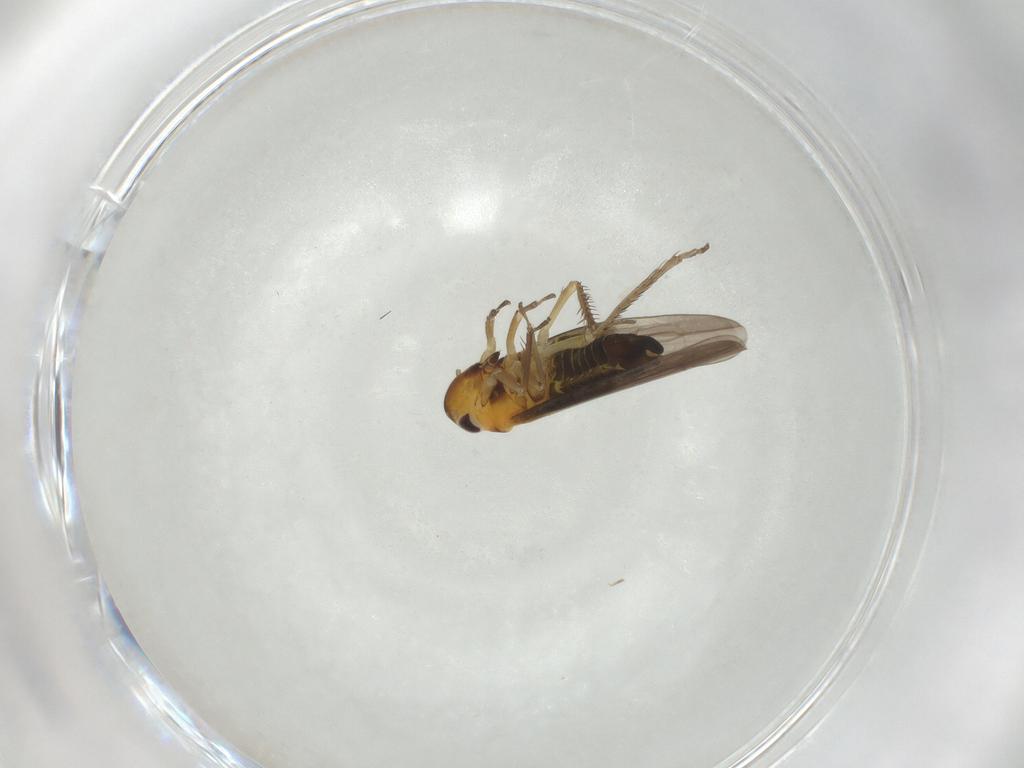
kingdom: Animalia
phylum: Arthropoda
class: Insecta
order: Hemiptera
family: Cicadellidae
